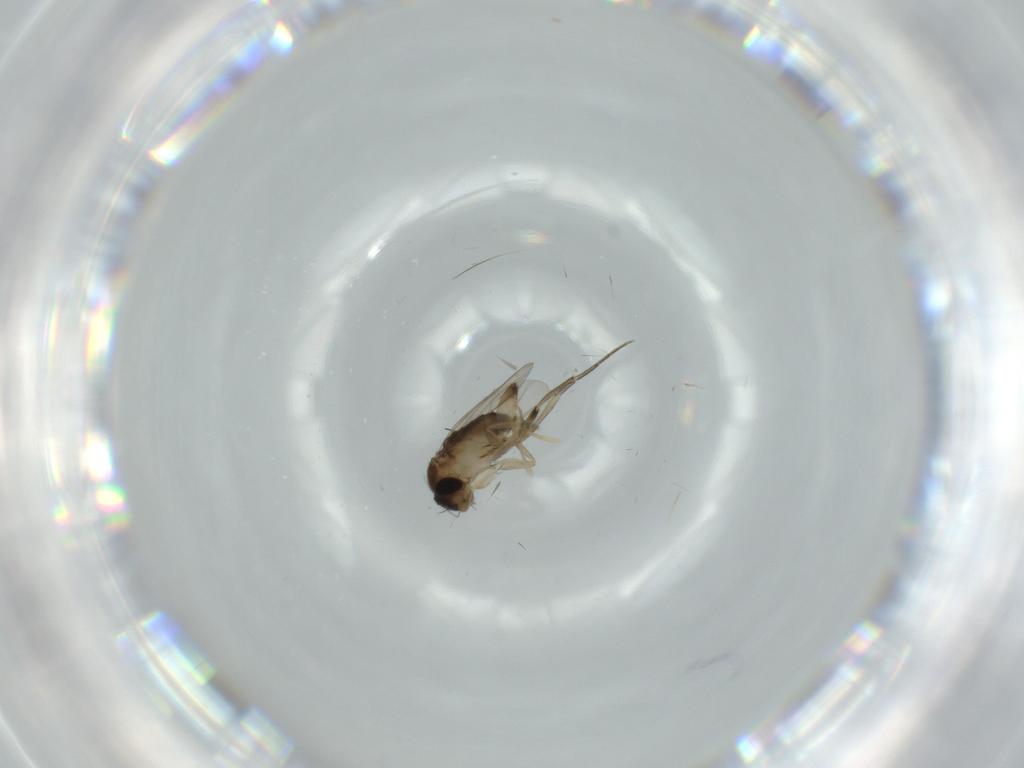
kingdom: Animalia
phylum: Arthropoda
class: Insecta
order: Diptera
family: Phoridae
